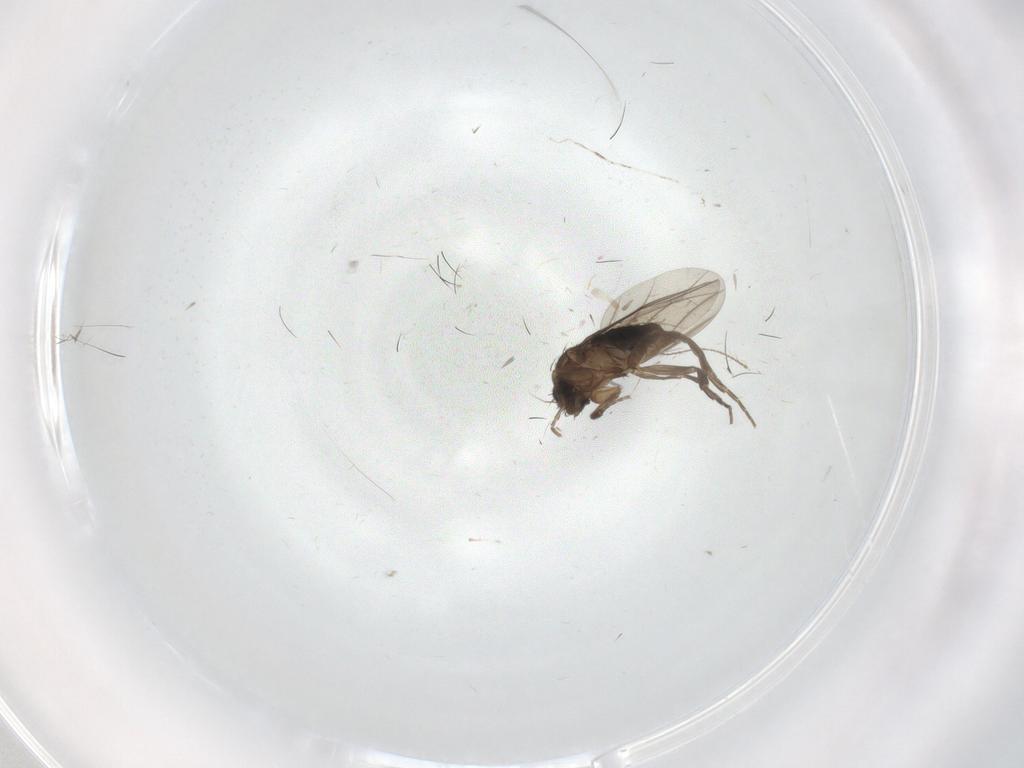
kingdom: Animalia
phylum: Arthropoda
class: Insecta
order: Diptera
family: Phoridae
